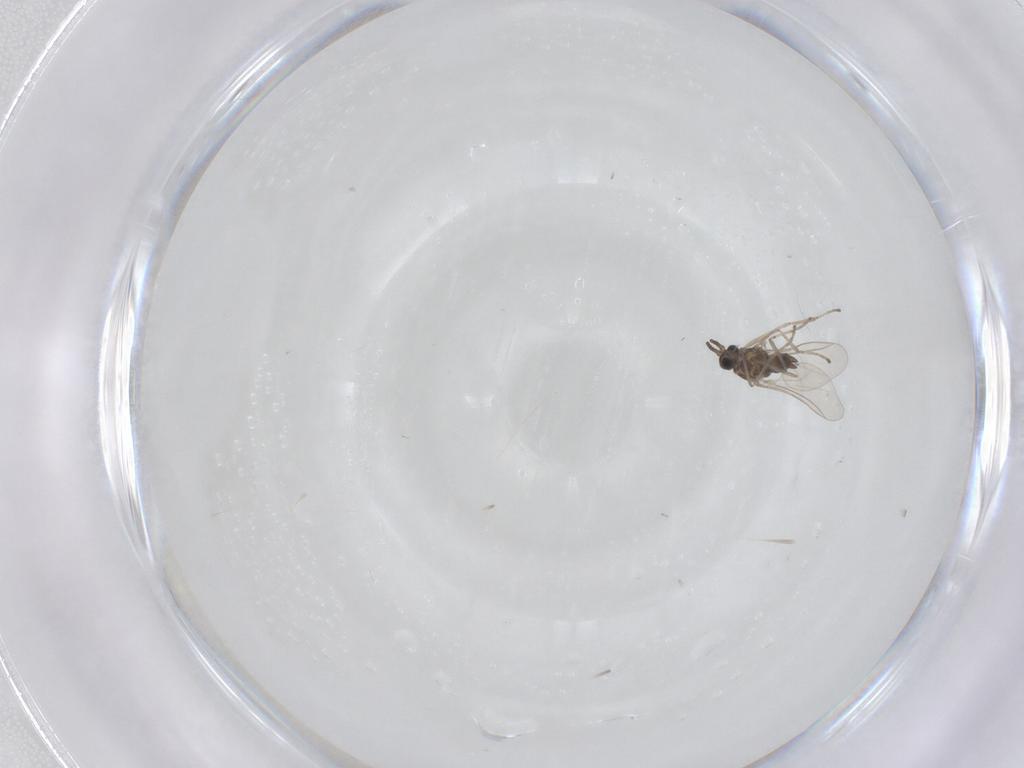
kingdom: Animalia
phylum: Arthropoda
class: Insecta
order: Diptera
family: Cecidomyiidae
